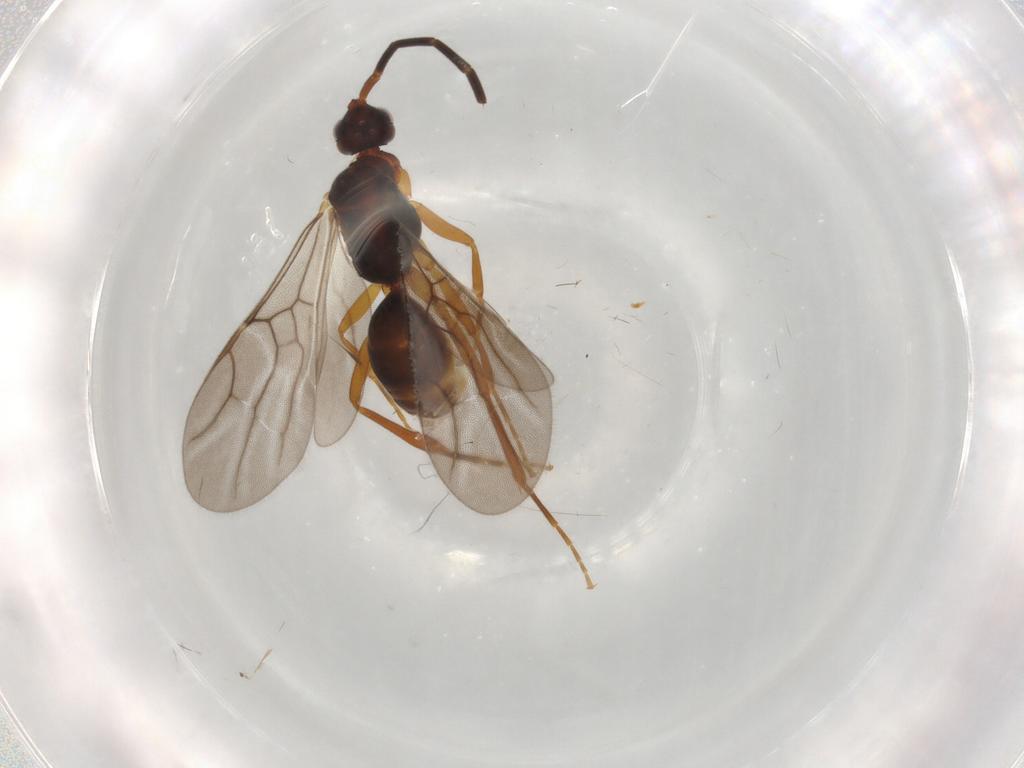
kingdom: Animalia
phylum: Arthropoda
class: Insecta
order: Hymenoptera
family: Embolemidae
